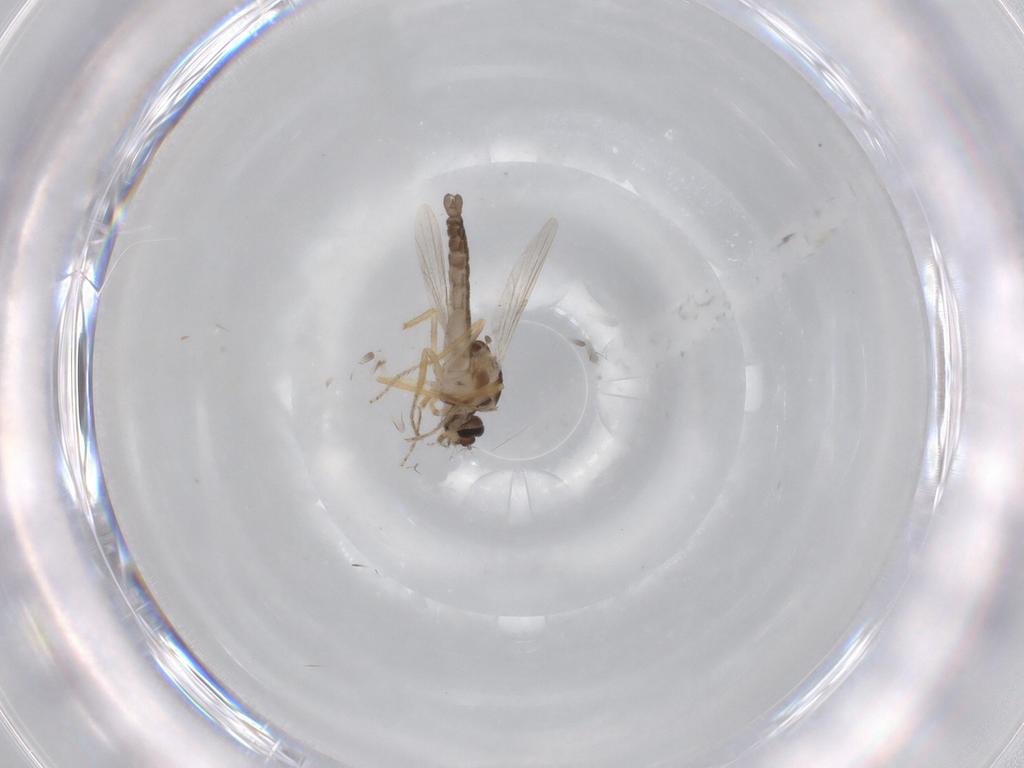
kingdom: Animalia
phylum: Arthropoda
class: Insecta
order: Diptera
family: Ceratopogonidae
